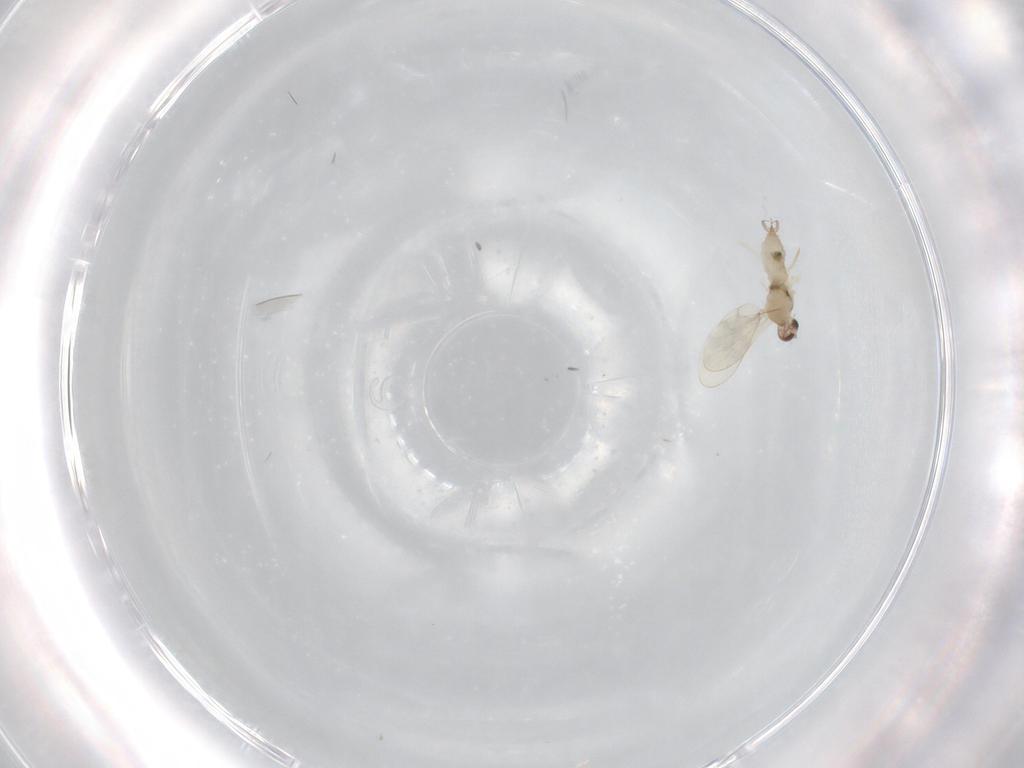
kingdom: Animalia
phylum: Arthropoda
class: Insecta
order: Diptera
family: Cecidomyiidae
